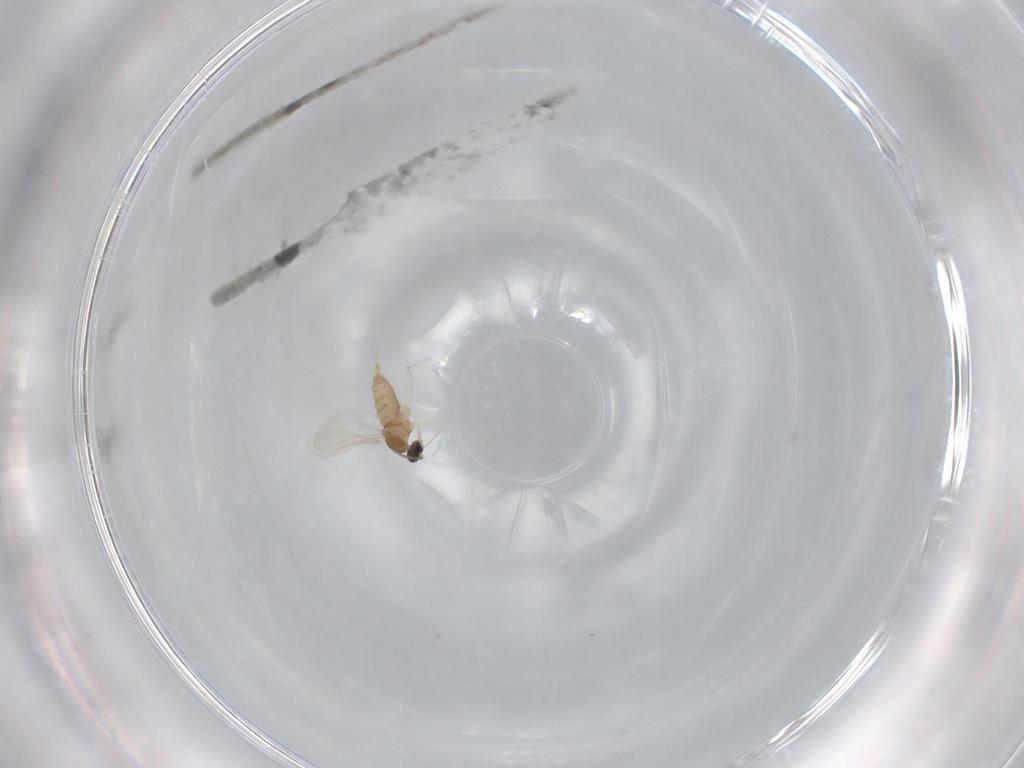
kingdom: Animalia
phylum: Arthropoda
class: Insecta
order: Diptera
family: Cecidomyiidae
